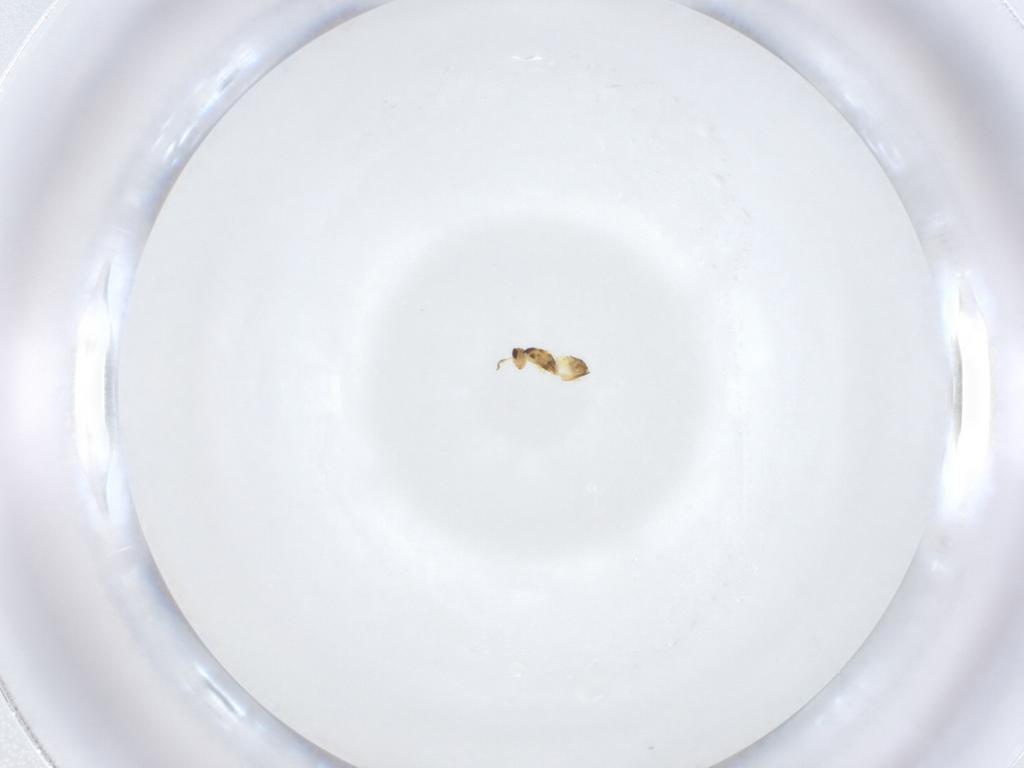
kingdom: Animalia
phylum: Arthropoda
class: Insecta
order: Hymenoptera
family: Mymaridae
